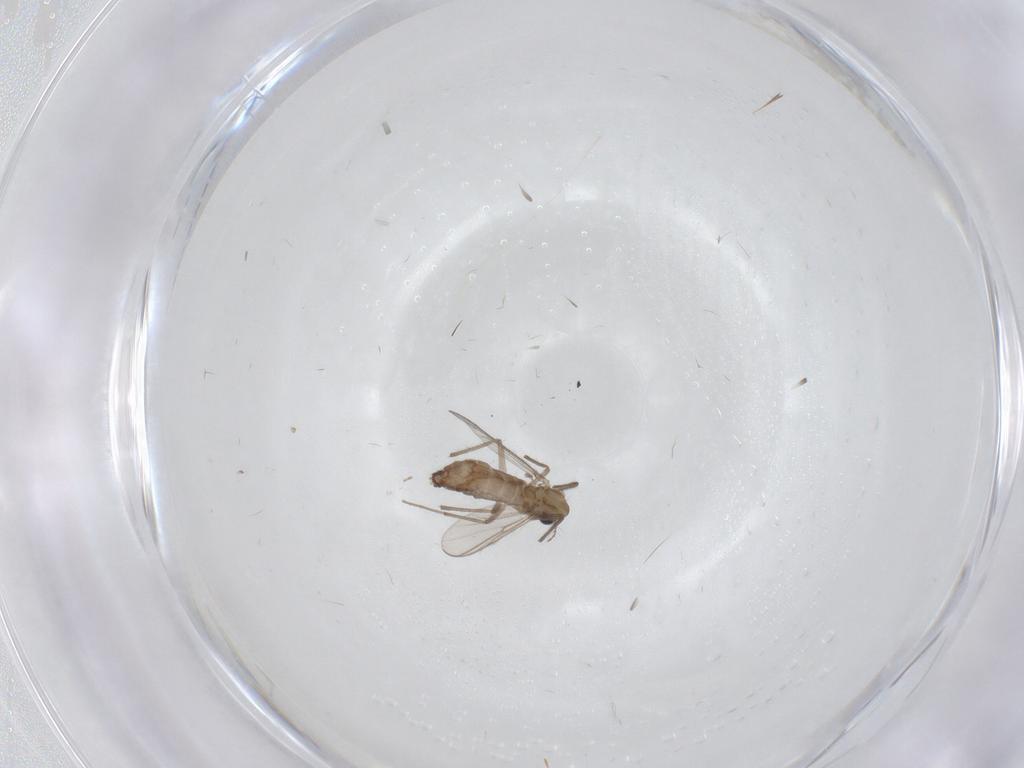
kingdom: Animalia
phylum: Arthropoda
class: Insecta
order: Diptera
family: Chironomidae
